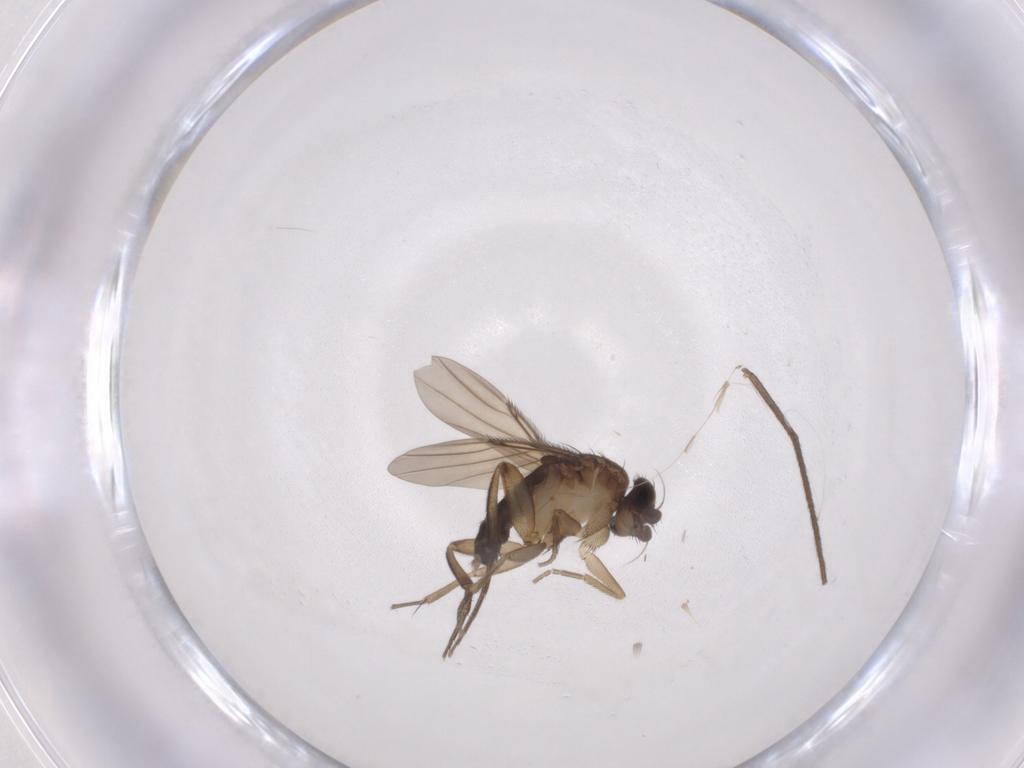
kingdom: Animalia
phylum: Arthropoda
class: Insecta
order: Diptera
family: Phoridae
